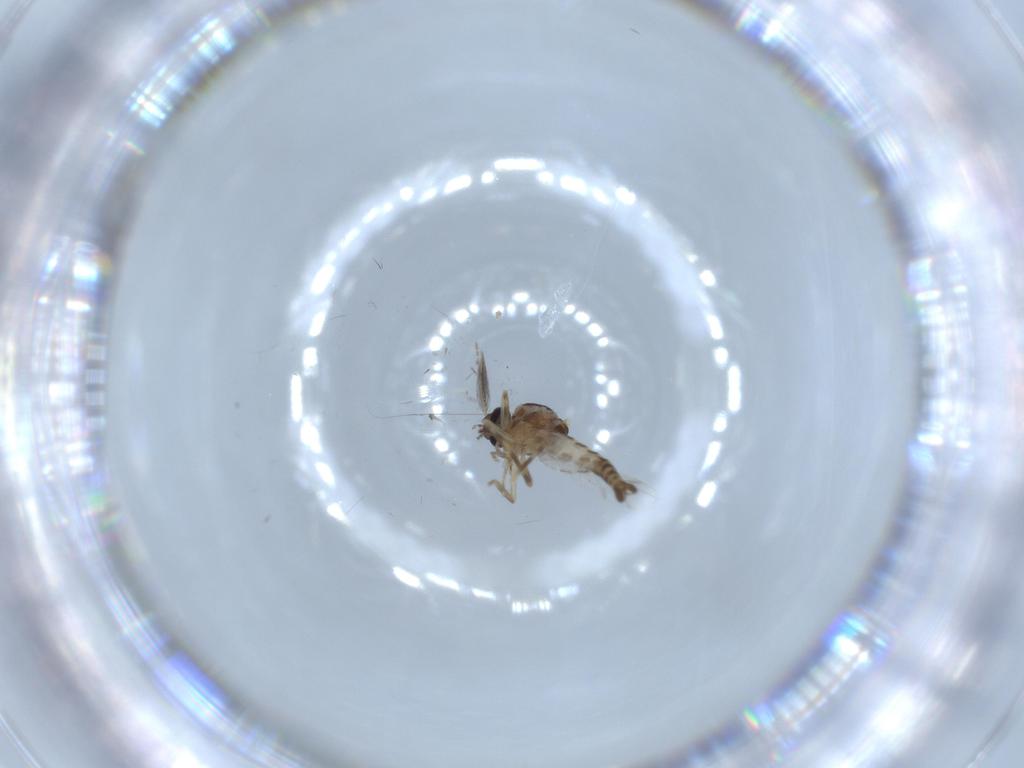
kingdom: Animalia
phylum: Arthropoda
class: Insecta
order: Diptera
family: Ceratopogonidae
